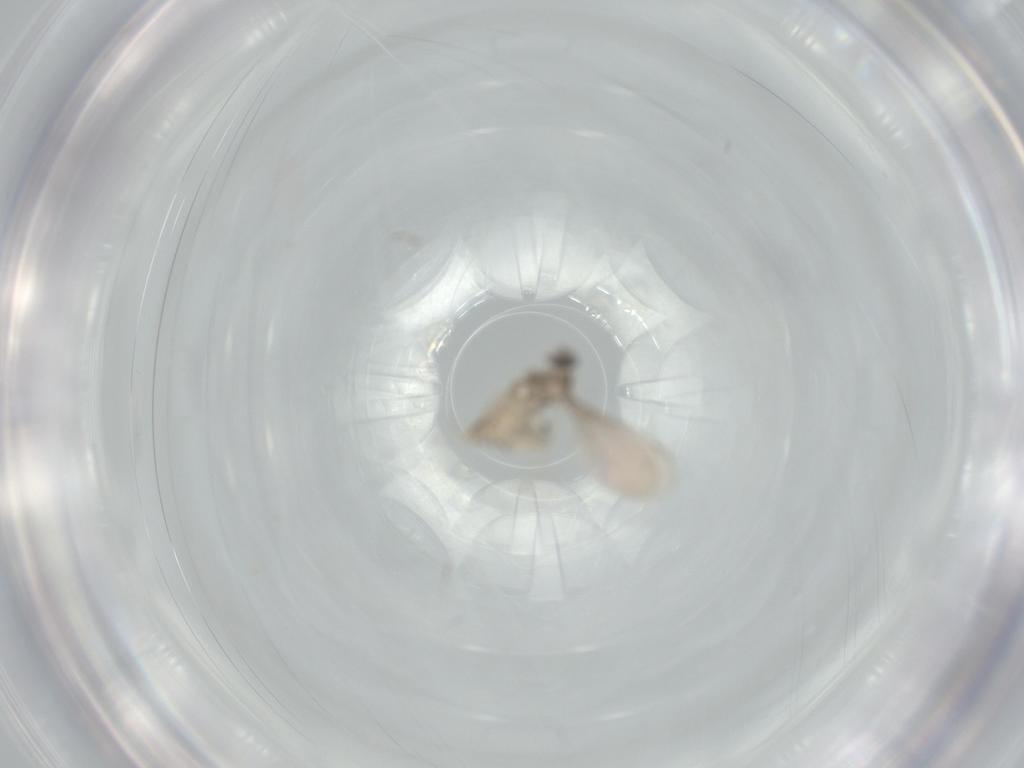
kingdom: Animalia
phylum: Arthropoda
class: Insecta
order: Diptera
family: Cecidomyiidae
